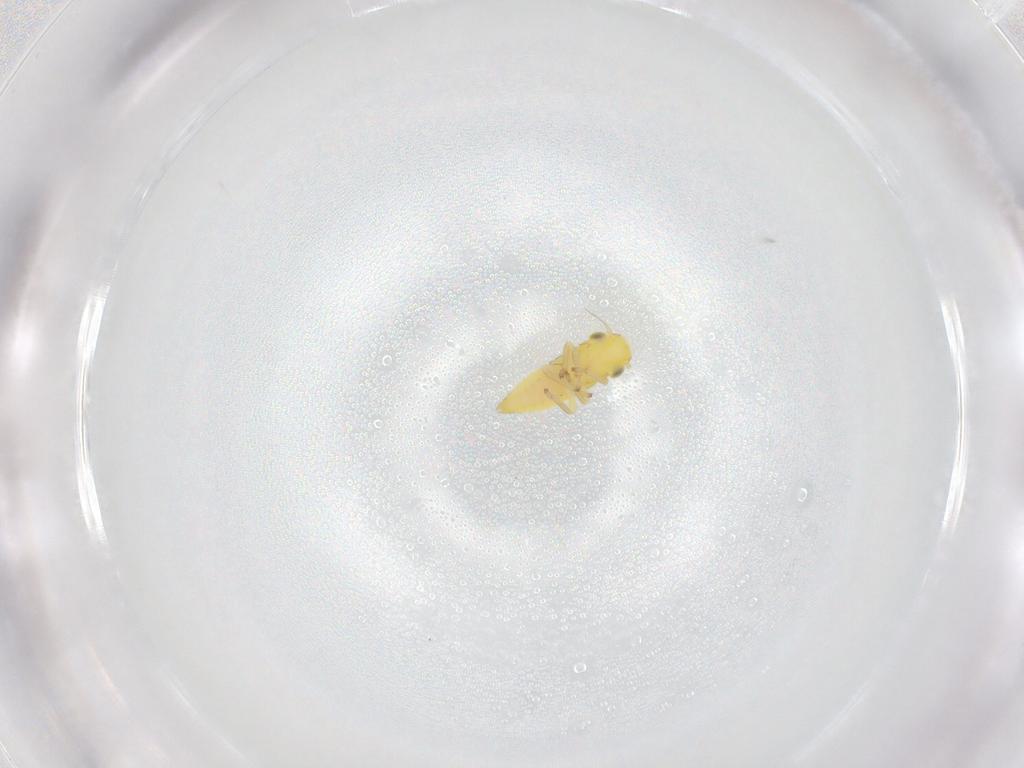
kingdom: Animalia
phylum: Arthropoda
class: Insecta
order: Hemiptera
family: Cicadellidae
